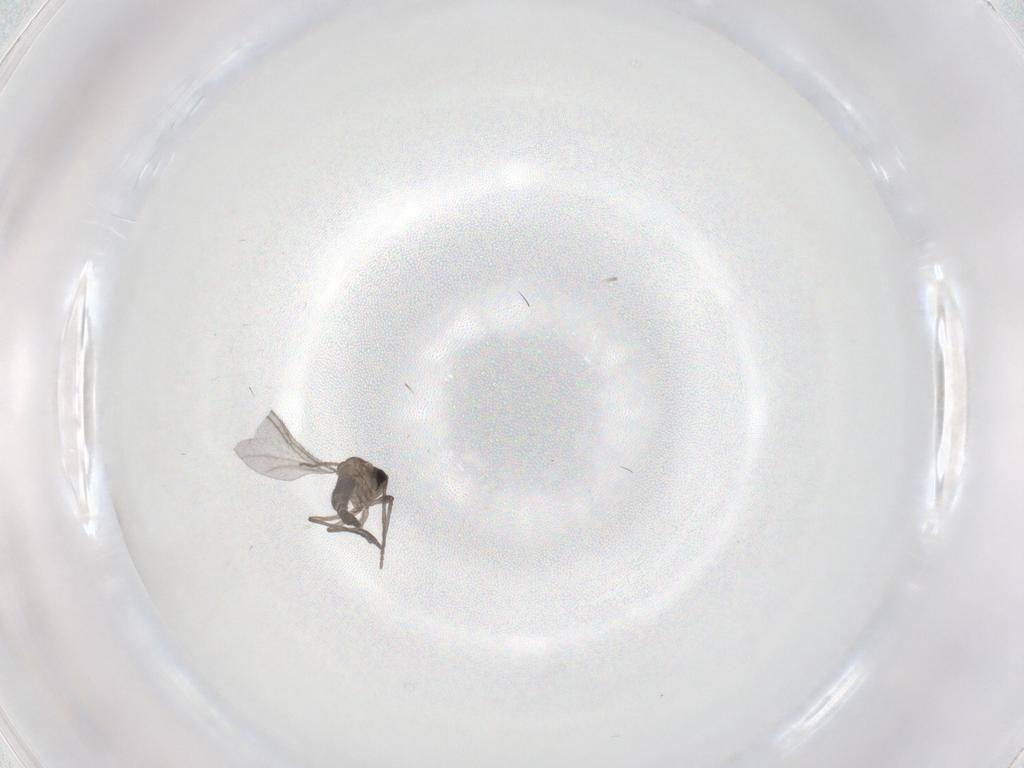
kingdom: Animalia
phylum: Arthropoda
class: Insecta
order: Diptera
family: Sciaridae
